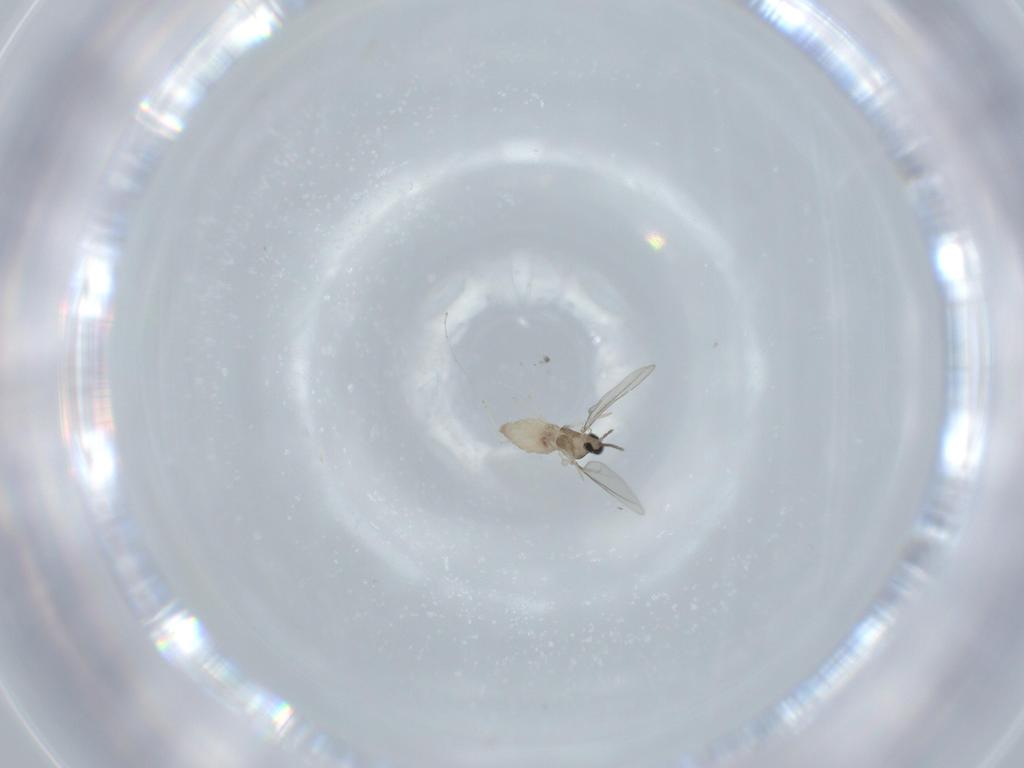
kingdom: Animalia
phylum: Arthropoda
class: Insecta
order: Diptera
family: Cecidomyiidae
